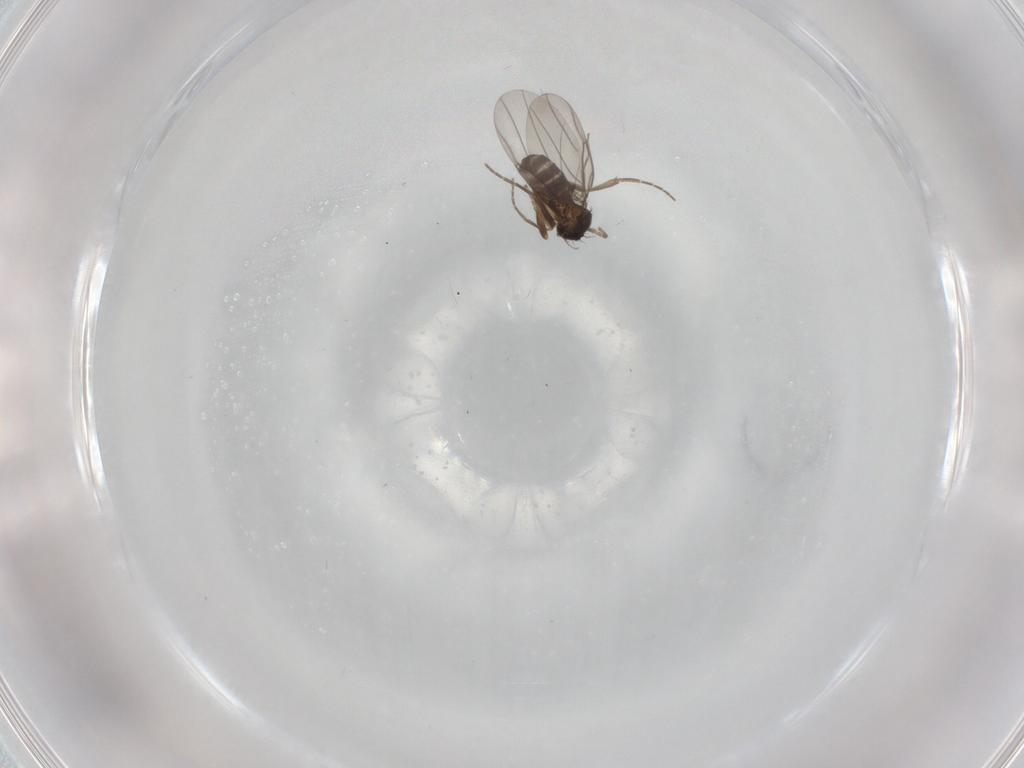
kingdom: Animalia
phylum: Arthropoda
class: Insecta
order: Diptera
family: Phoridae
